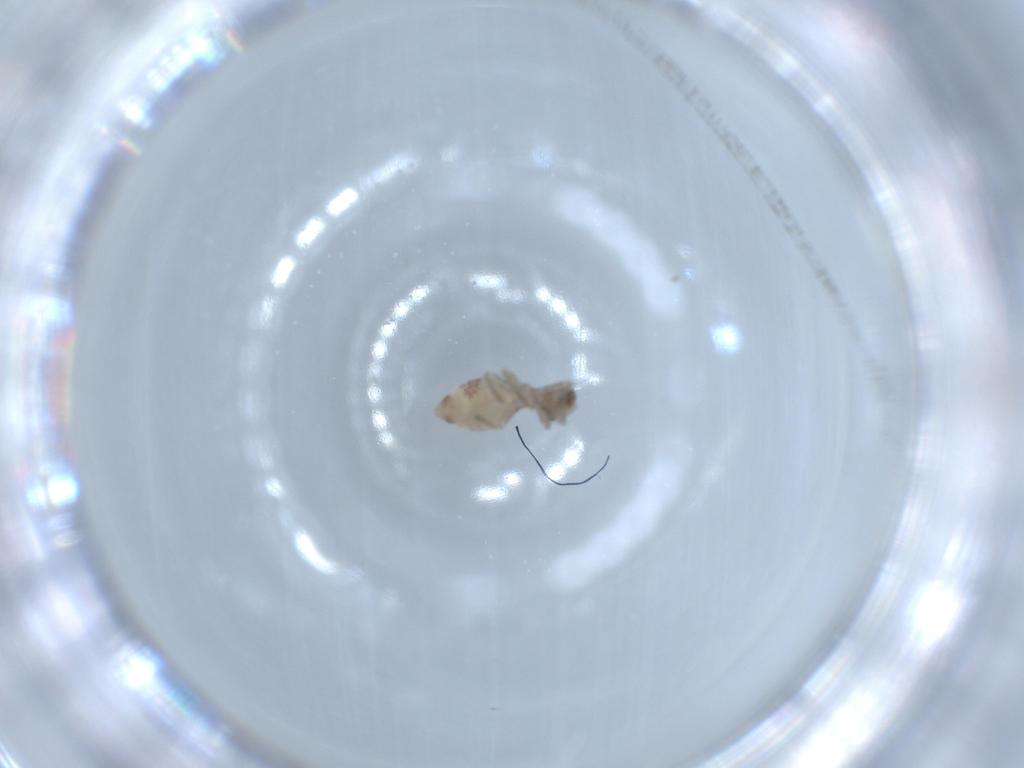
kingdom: Animalia
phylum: Arthropoda
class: Insecta
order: Psocodea
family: Psocidae
